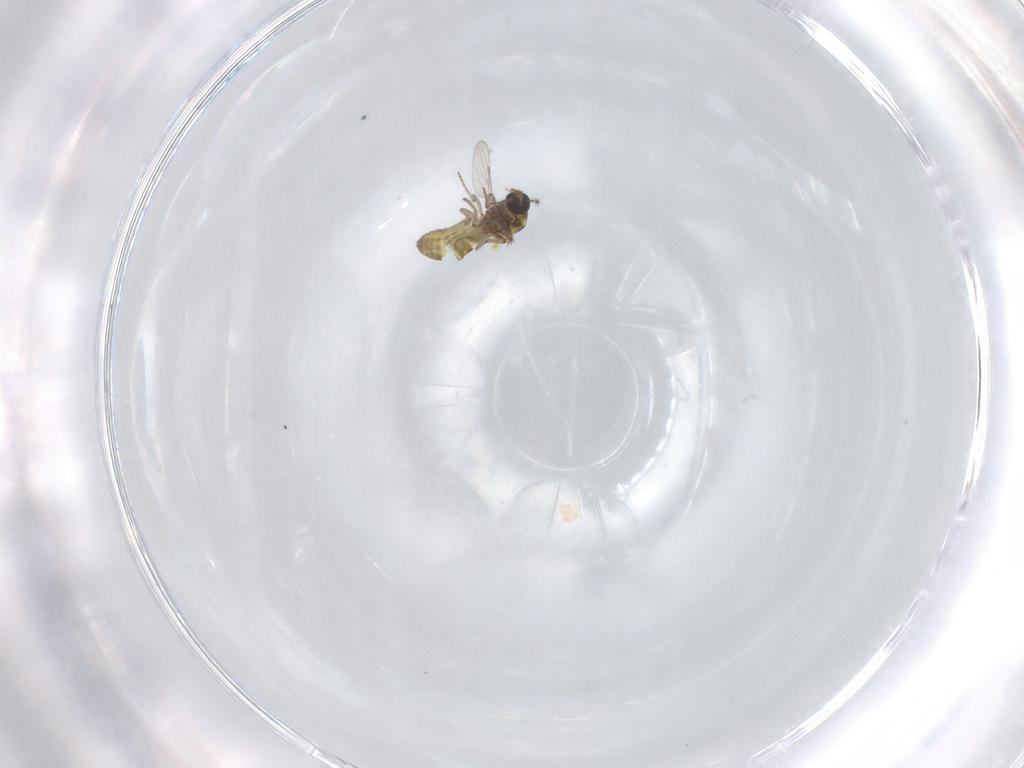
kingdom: Animalia
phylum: Arthropoda
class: Insecta
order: Diptera
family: Ceratopogonidae
